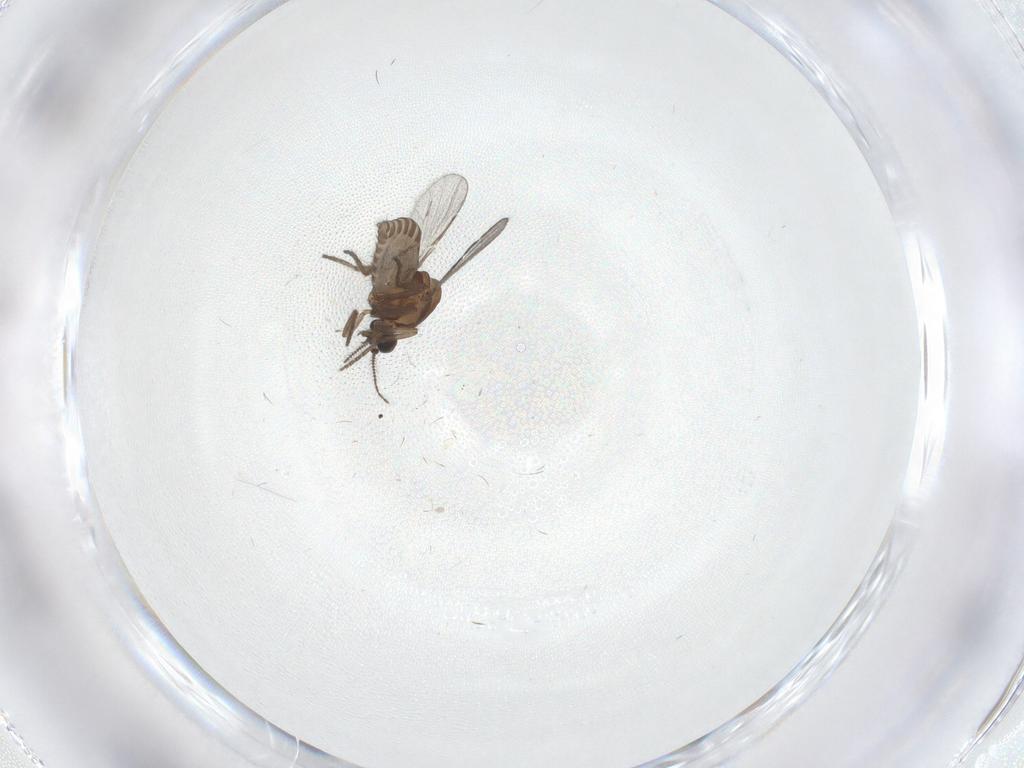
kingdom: Animalia
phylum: Arthropoda
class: Insecta
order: Diptera
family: Cecidomyiidae
